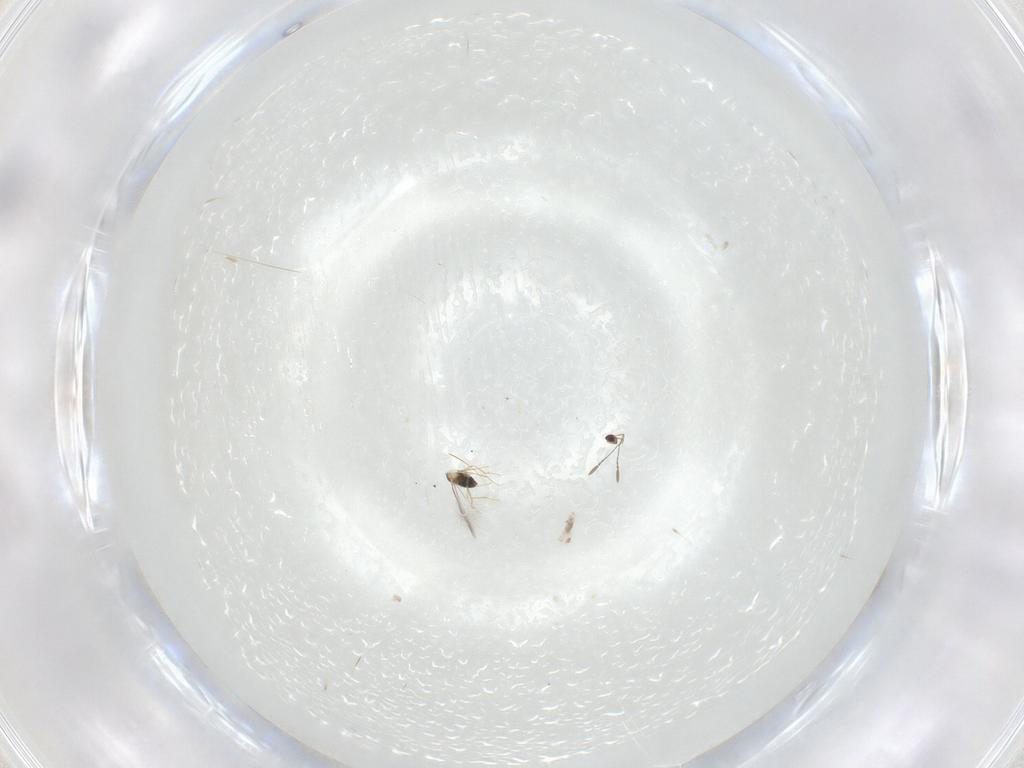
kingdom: Animalia
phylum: Arthropoda
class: Insecta
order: Hymenoptera
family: Mymaridae
